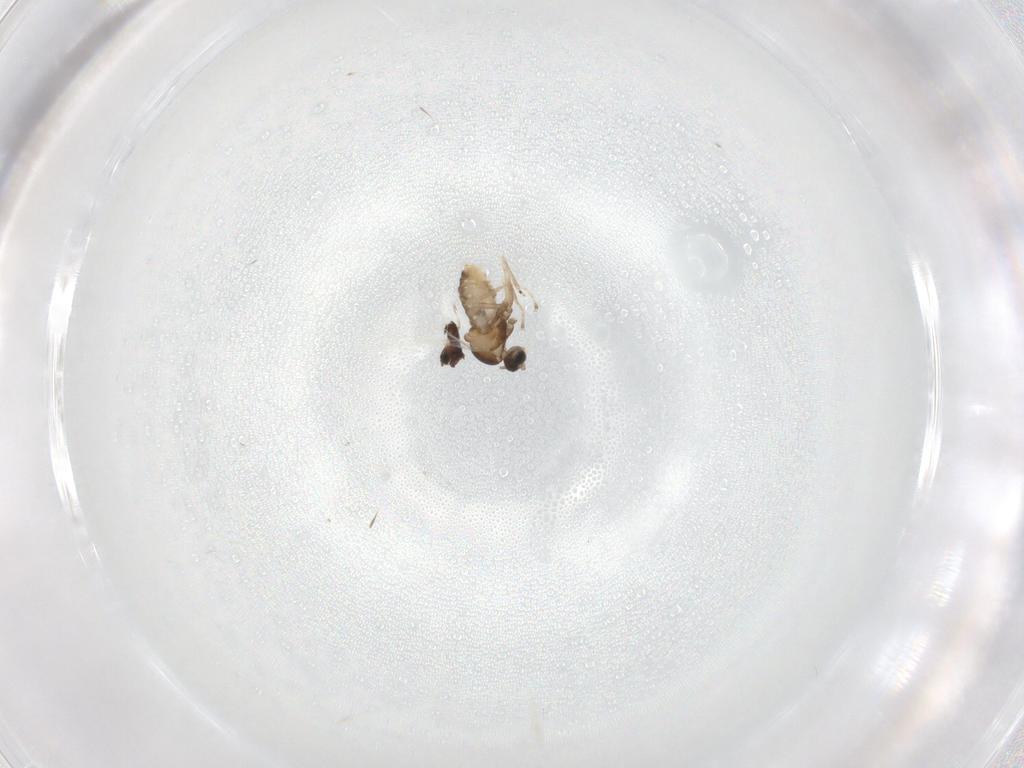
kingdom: Animalia
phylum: Arthropoda
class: Insecta
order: Diptera
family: Cecidomyiidae
